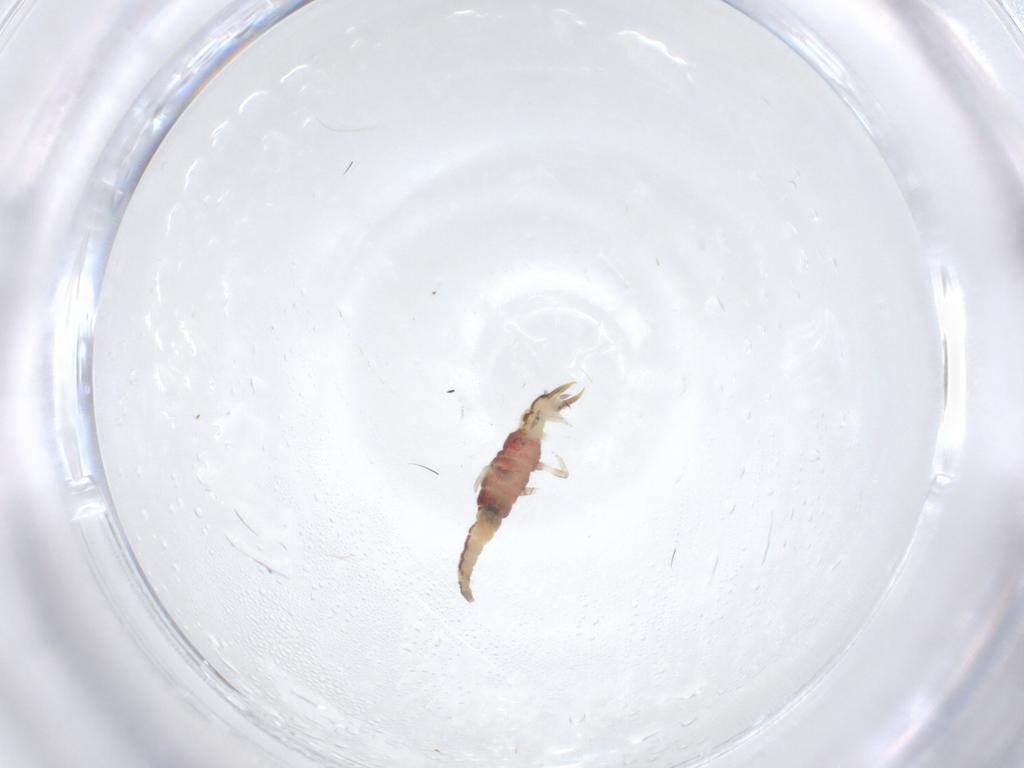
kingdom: Animalia
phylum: Arthropoda
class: Insecta
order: Neuroptera
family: Hemerobiidae
